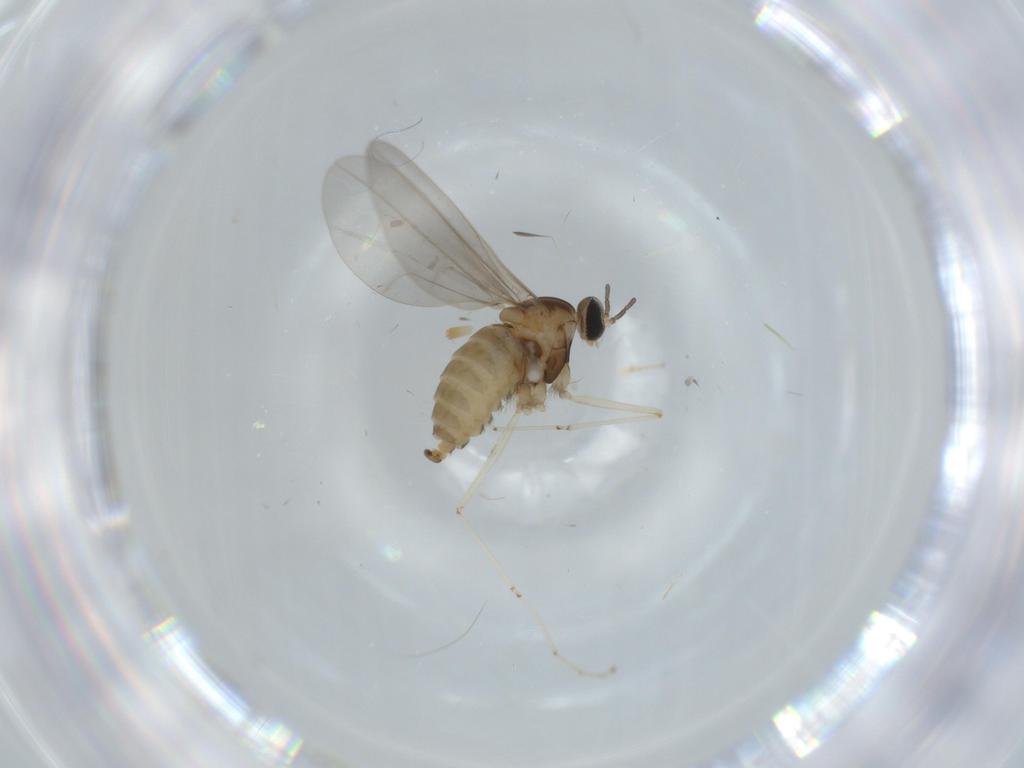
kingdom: Animalia
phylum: Arthropoda
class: Insecta
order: Diptera
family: Cecidomyiidae
